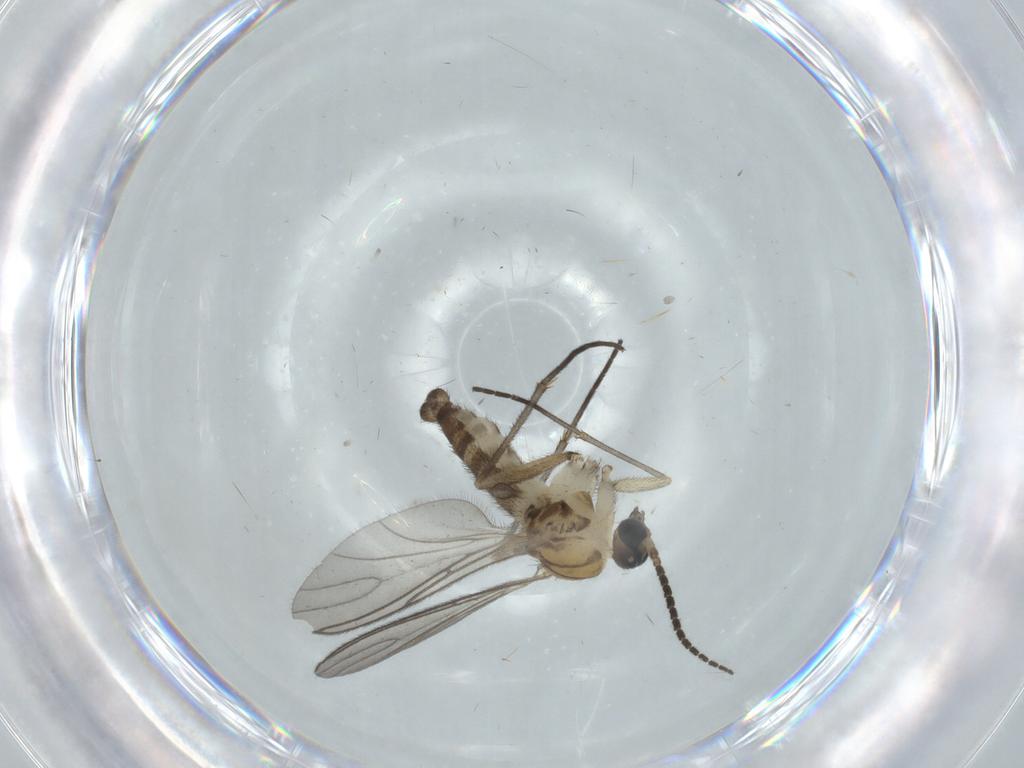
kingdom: Animalia
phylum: Arthropoda
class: Insecta
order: Diptera
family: Sciaridae
